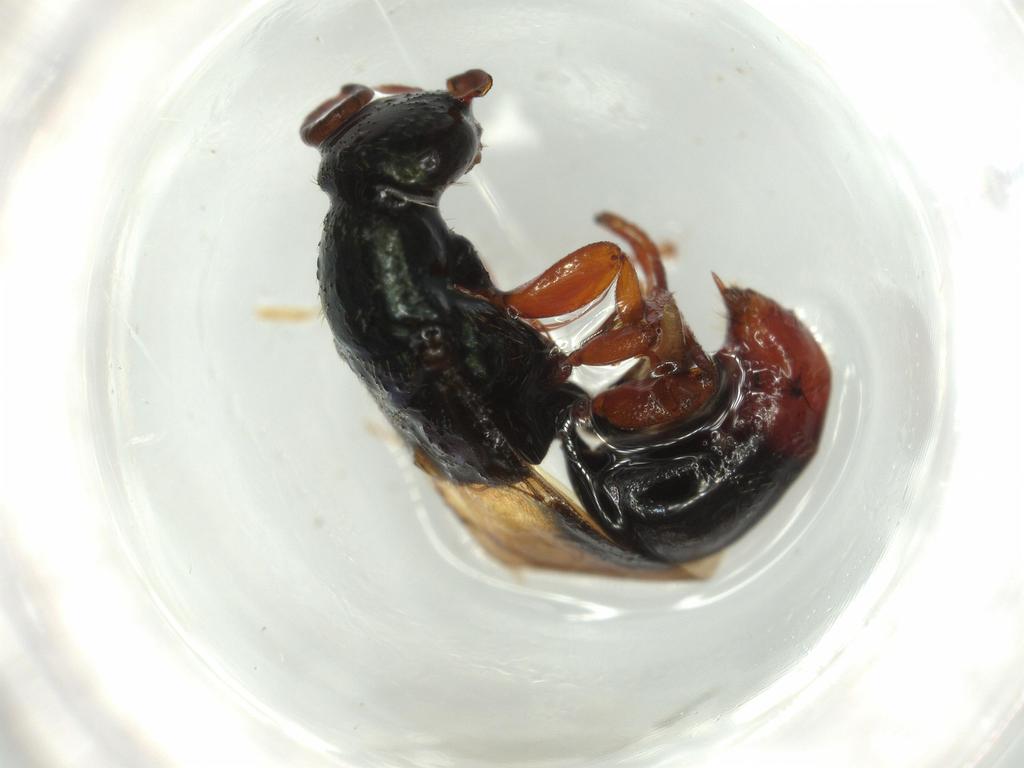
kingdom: Animalia
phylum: Arthropoda
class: Insecta
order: Hymenoptera
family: Bethylidae
